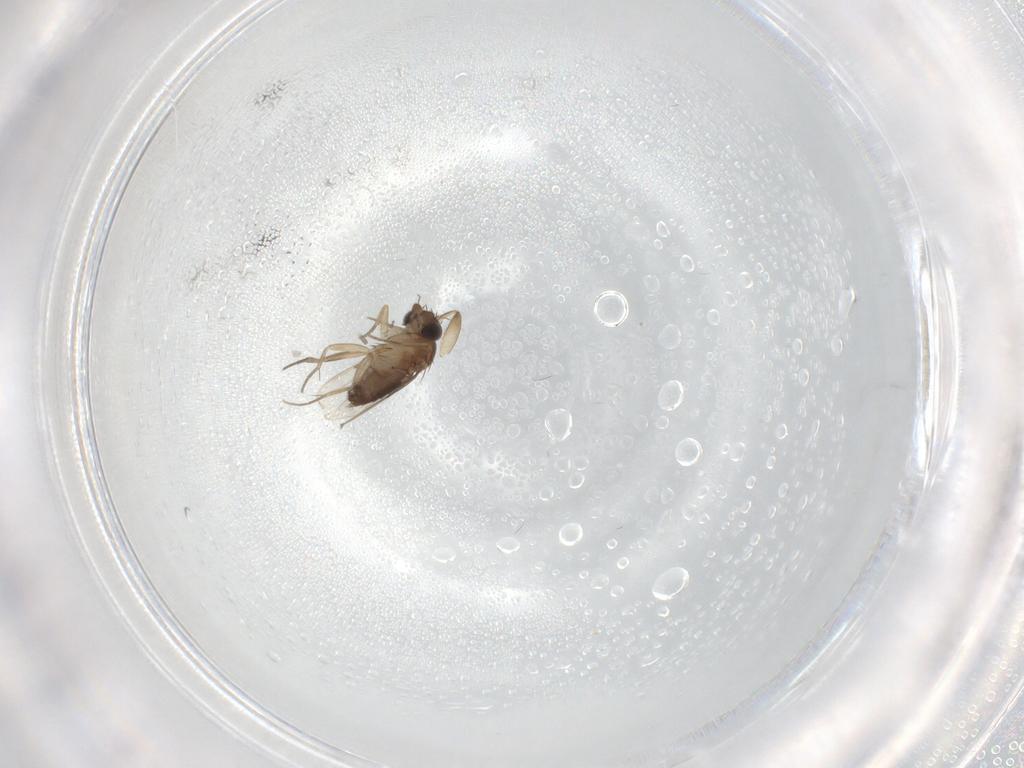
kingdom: Animalia
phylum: Arthropoda
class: Insecta
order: Diptera
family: Sciaridae
